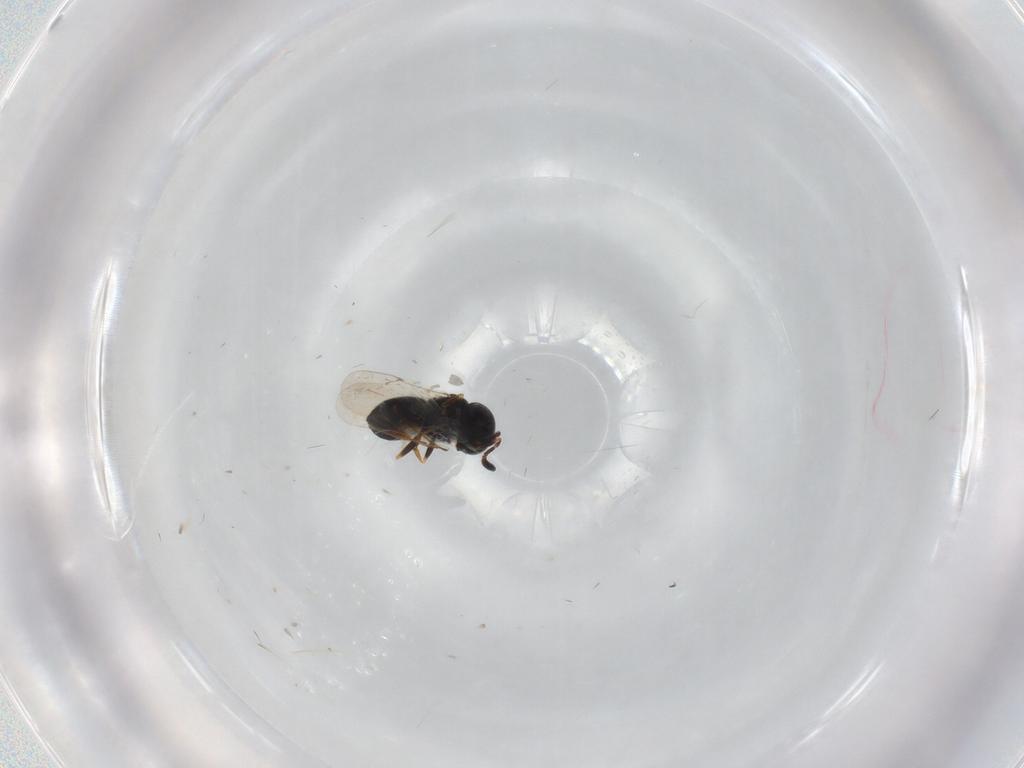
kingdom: Animalia
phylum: Arthropoda
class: Insecta
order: Hymenoptera
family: Scelionidae
